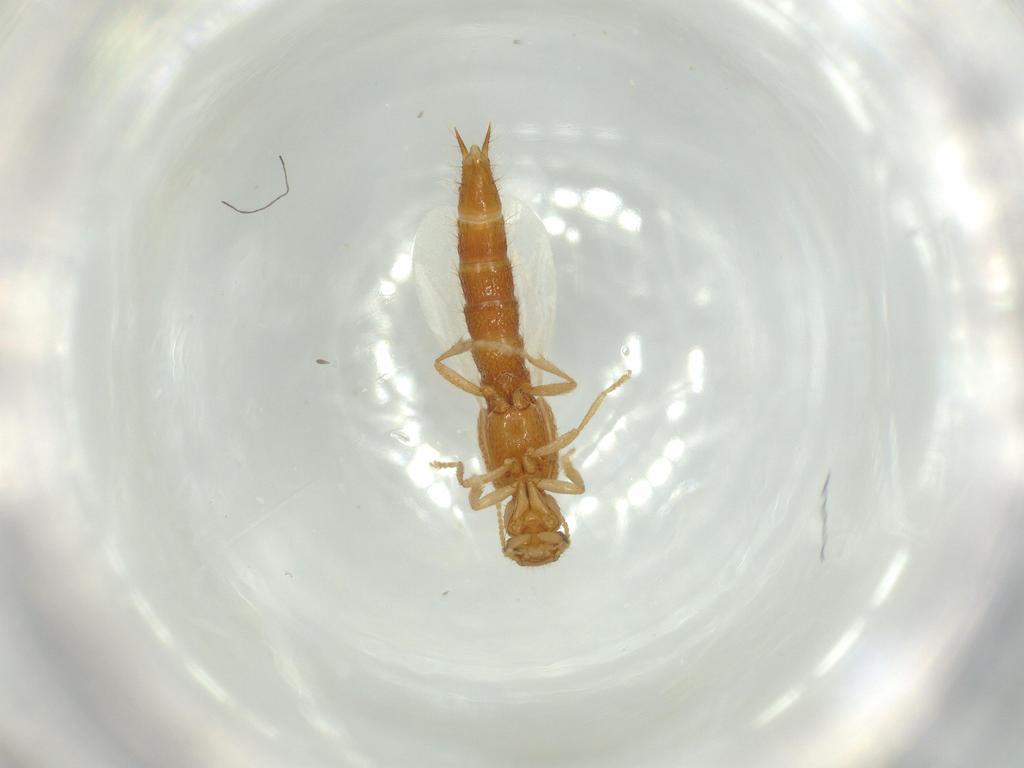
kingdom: Animalia
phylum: Arthropoda
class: Insecta
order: Coleoptera
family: Staphylinidae
